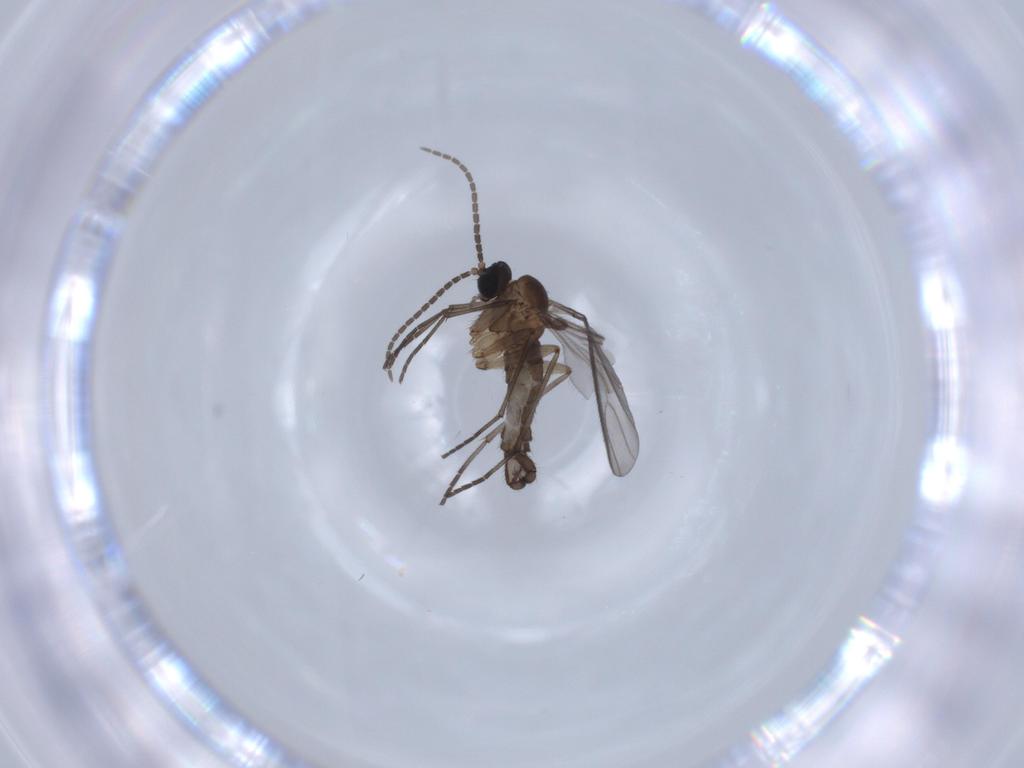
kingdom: Animalia
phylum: Arthropoda
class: Insecta
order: Diptera
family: Sciaridae
